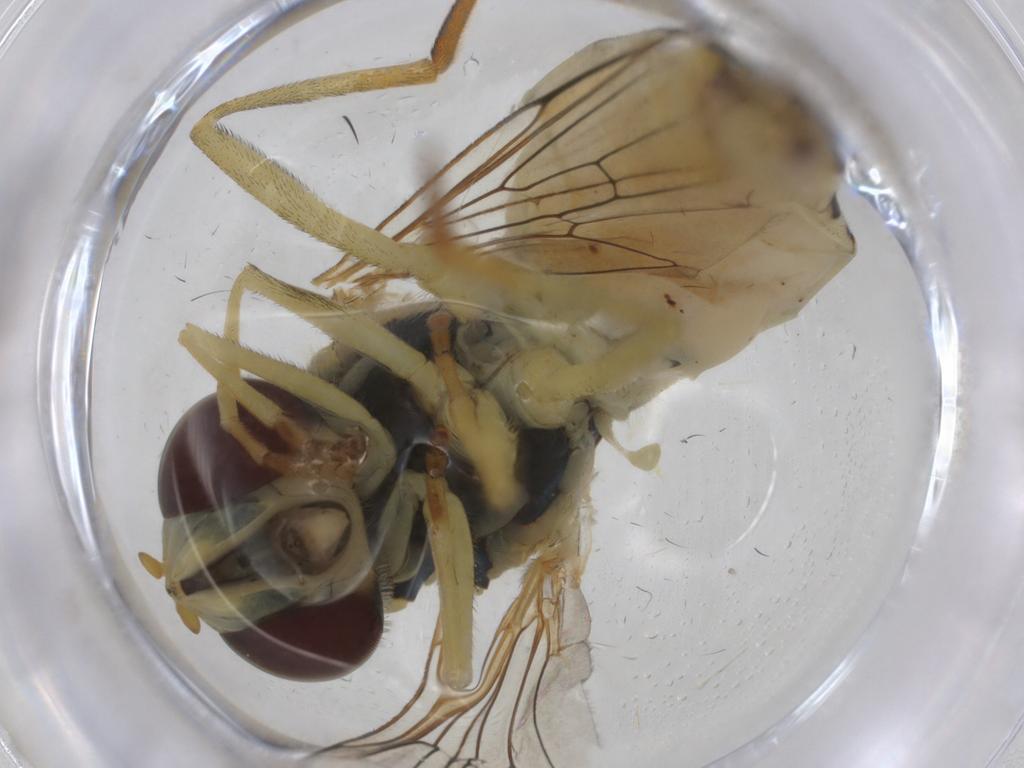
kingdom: Animalia
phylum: Arthropoda
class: Insecta
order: Diptera
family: Syrphidae
